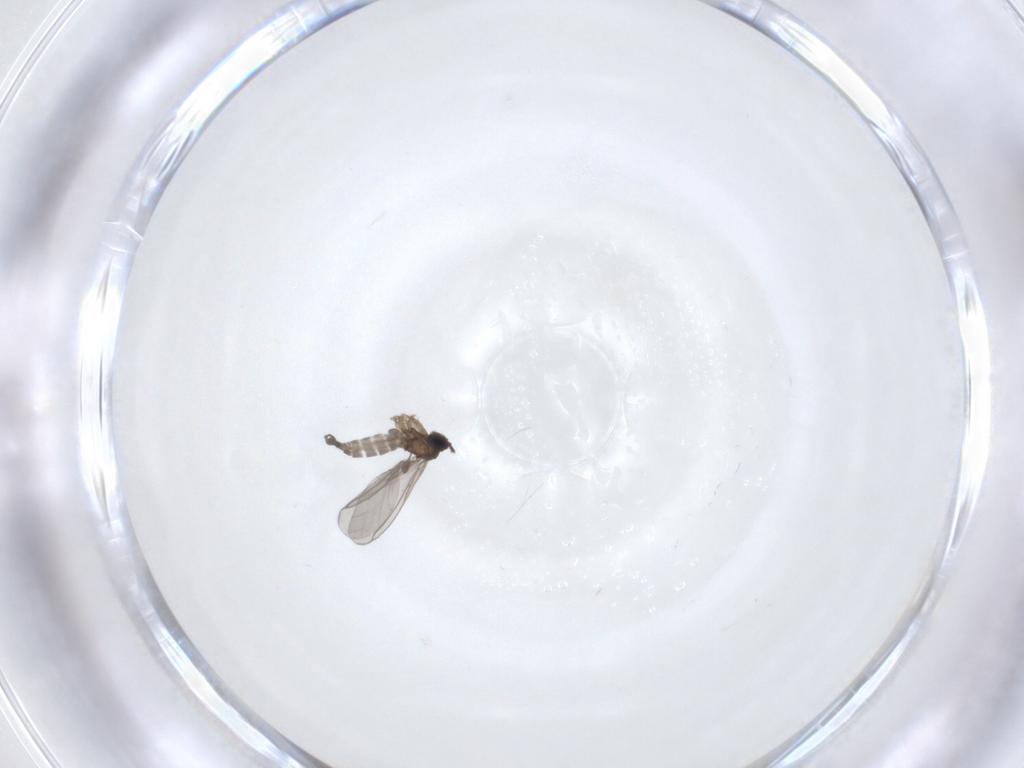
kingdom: Animalia
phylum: Arthropoda
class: Insecta
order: Diptera
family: Sciaridae
